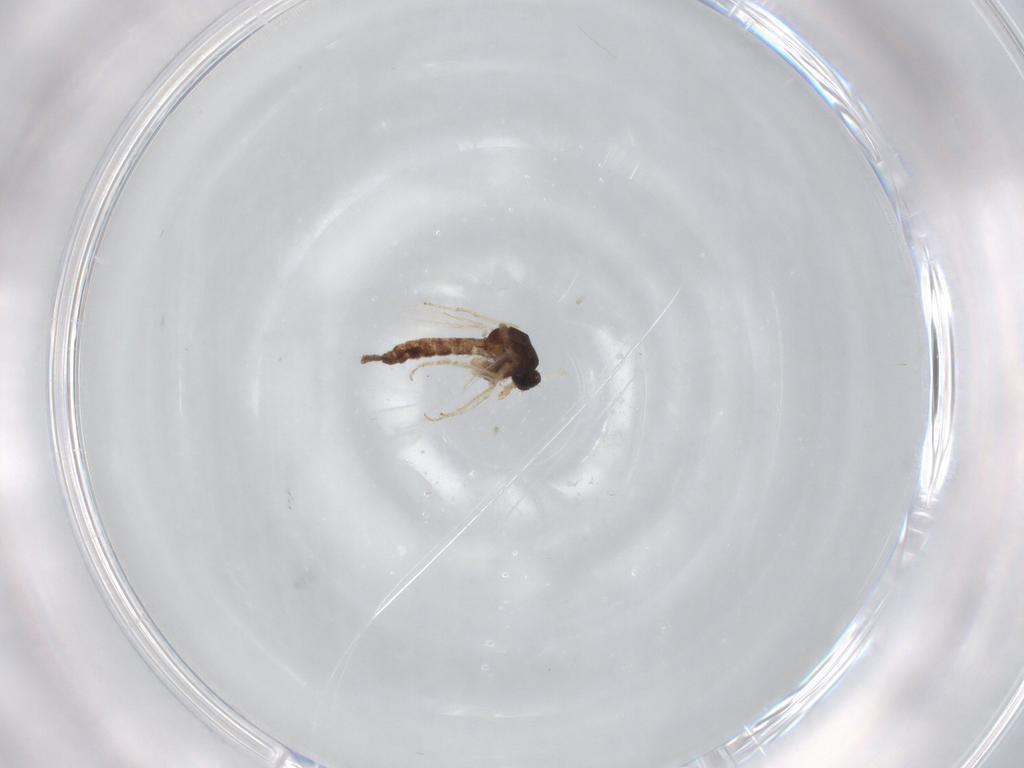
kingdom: Animalia
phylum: Arthropoda
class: Insecta
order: Diptera
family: Ceratopogonidae
